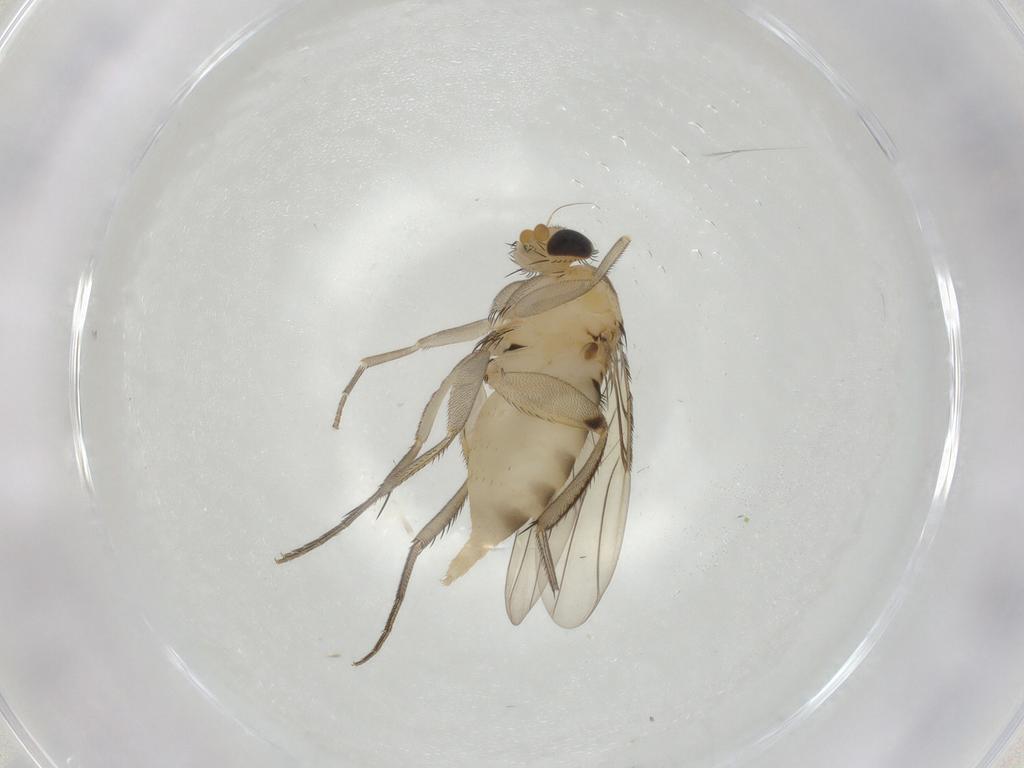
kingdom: Animalia
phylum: Arthropoda
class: Insecta
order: Diptera
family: Phoridae
